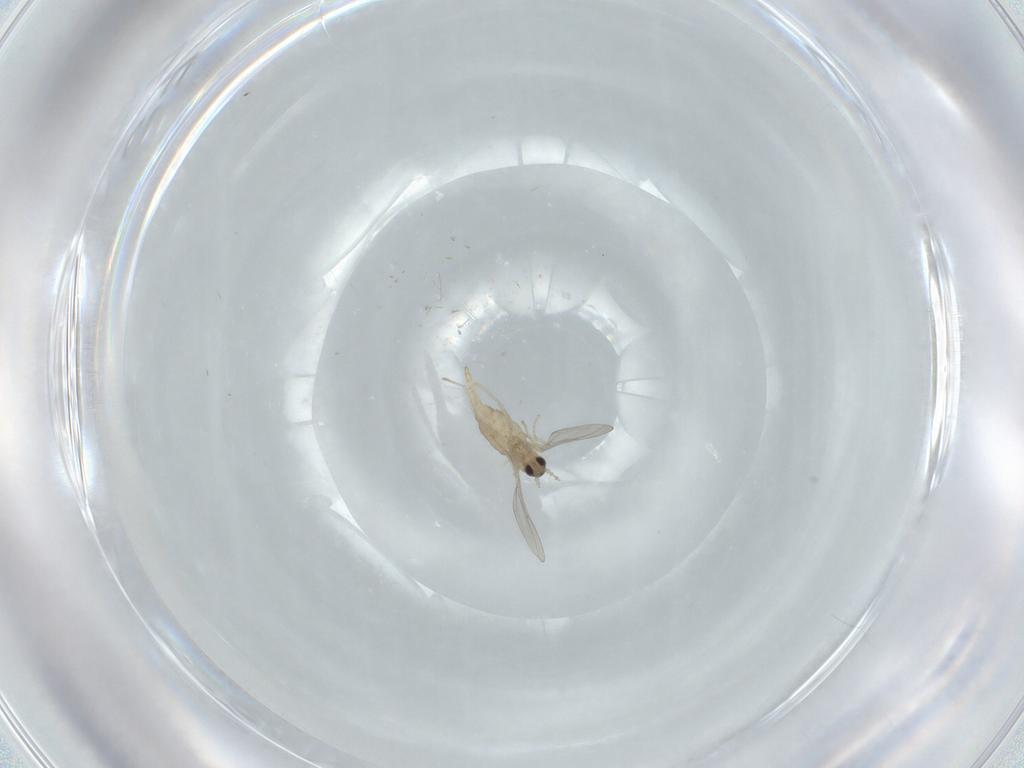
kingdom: Animalia
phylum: Arthropoda
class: Insecta
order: Diptera
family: Cecidomyiidae
